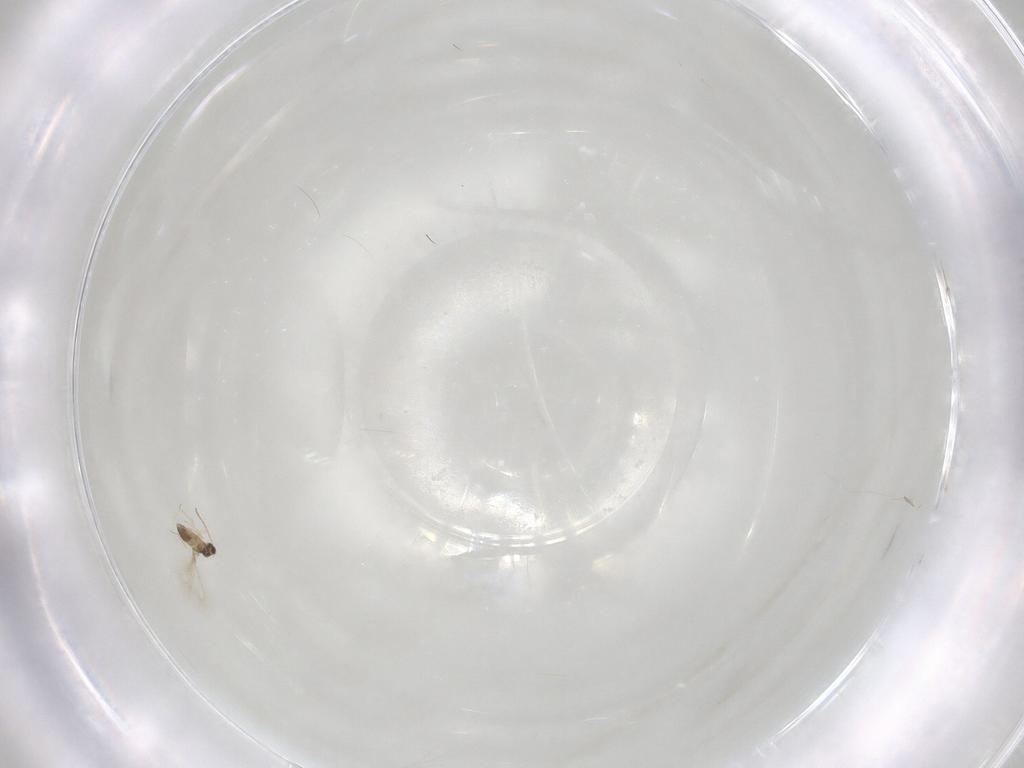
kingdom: Animalia
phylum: Arthropoda
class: Insecta
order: Hymenoptera
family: Mymaridae
